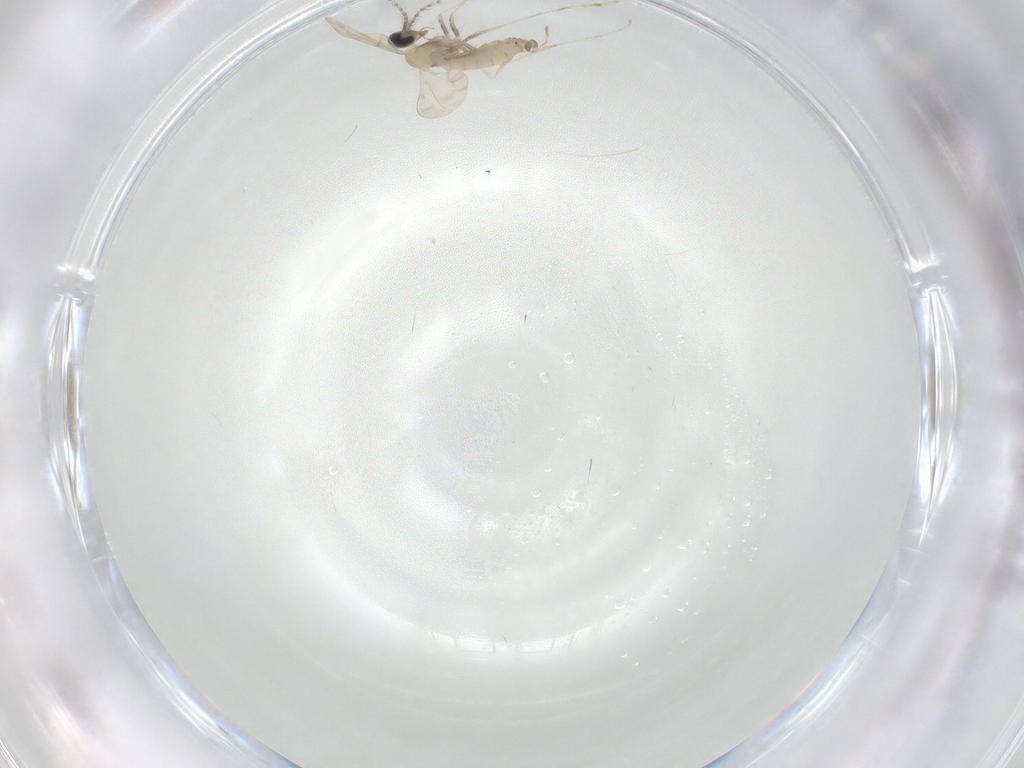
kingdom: Animalia
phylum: Arthropoda
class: Insecta
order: Diptera
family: Cecidomyiidae
